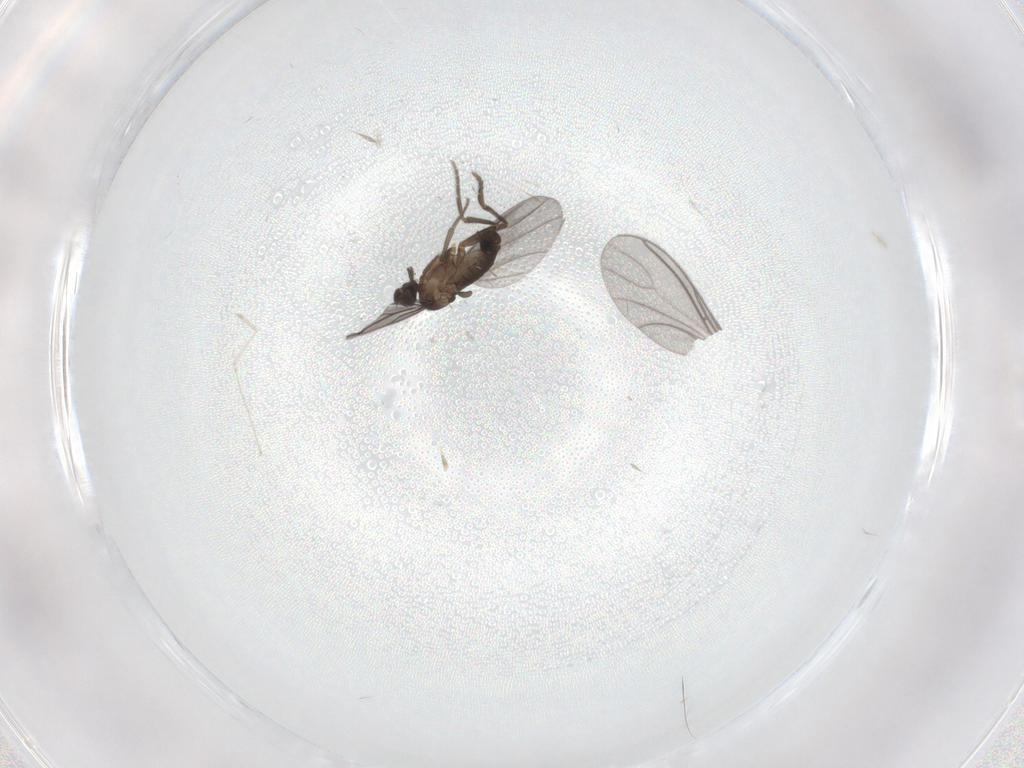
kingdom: Animalia
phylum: Arthropoda
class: Insecta
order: Diptera
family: Phoridae
